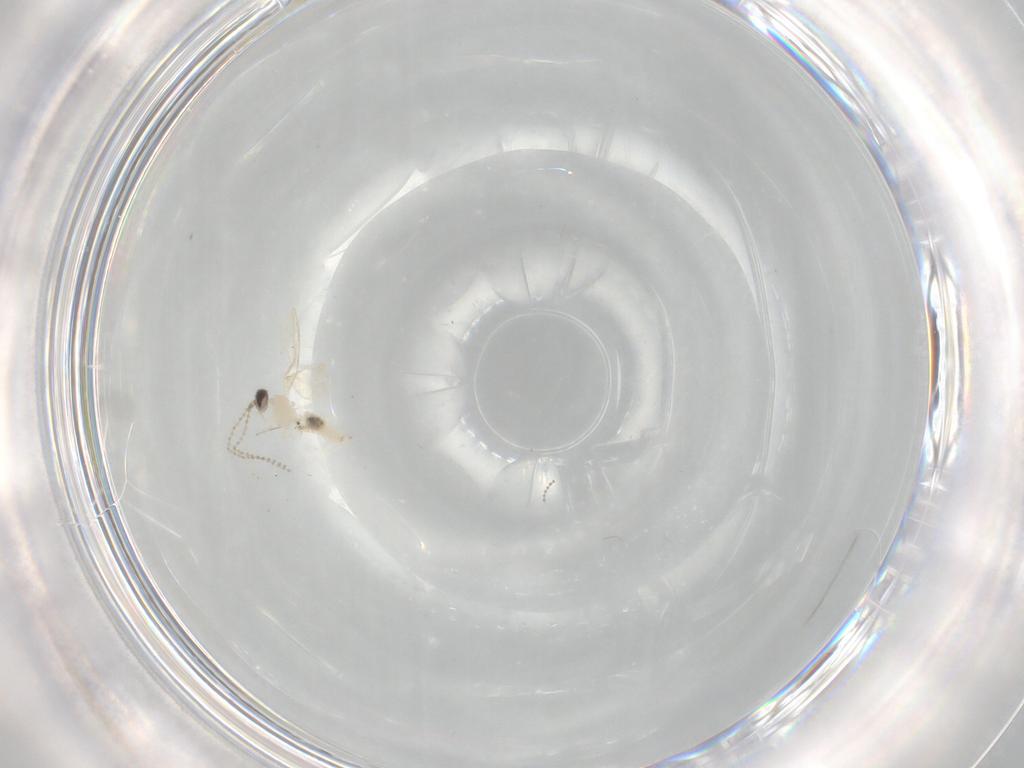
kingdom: Animalia
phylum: Arthropoda
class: Insecta
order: Diptera
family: Cecidomyiidae
